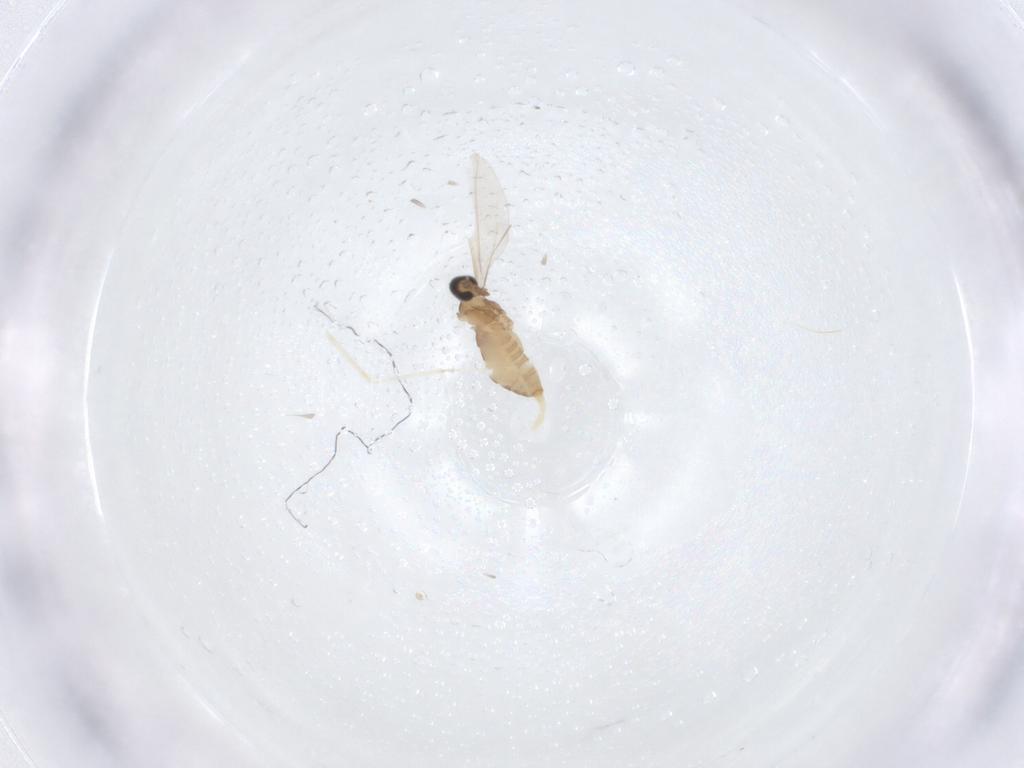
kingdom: Animalia
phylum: Arthropoda
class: Insecta
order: Diptera
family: Cecidomyiidae
